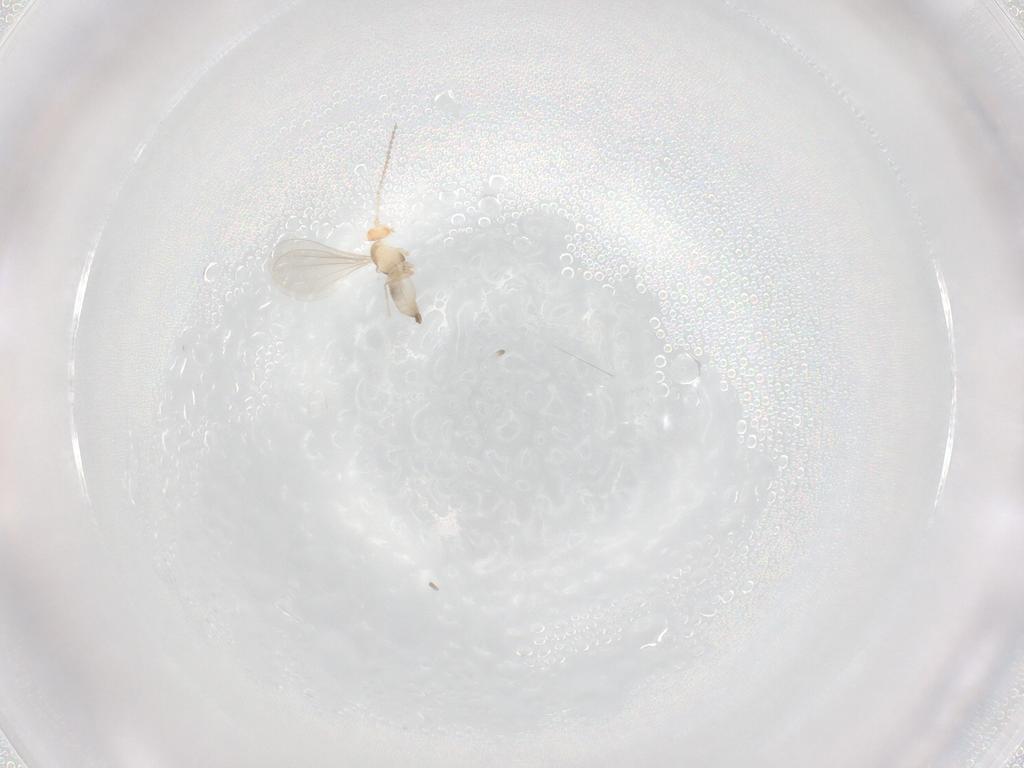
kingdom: Animalia
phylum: Arthropoda
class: Insecta
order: Diptera
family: Cecidomyiidae
